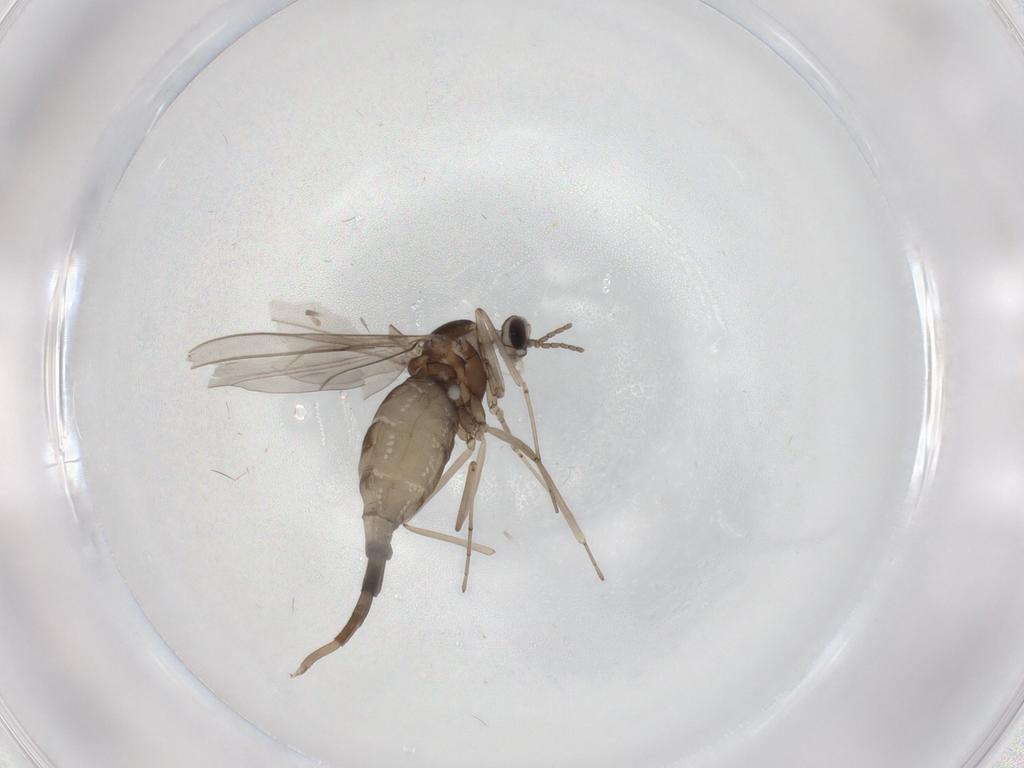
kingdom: Animalia
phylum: Arthropoda
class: Insecta
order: Diptera
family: Cecidomyiidae
